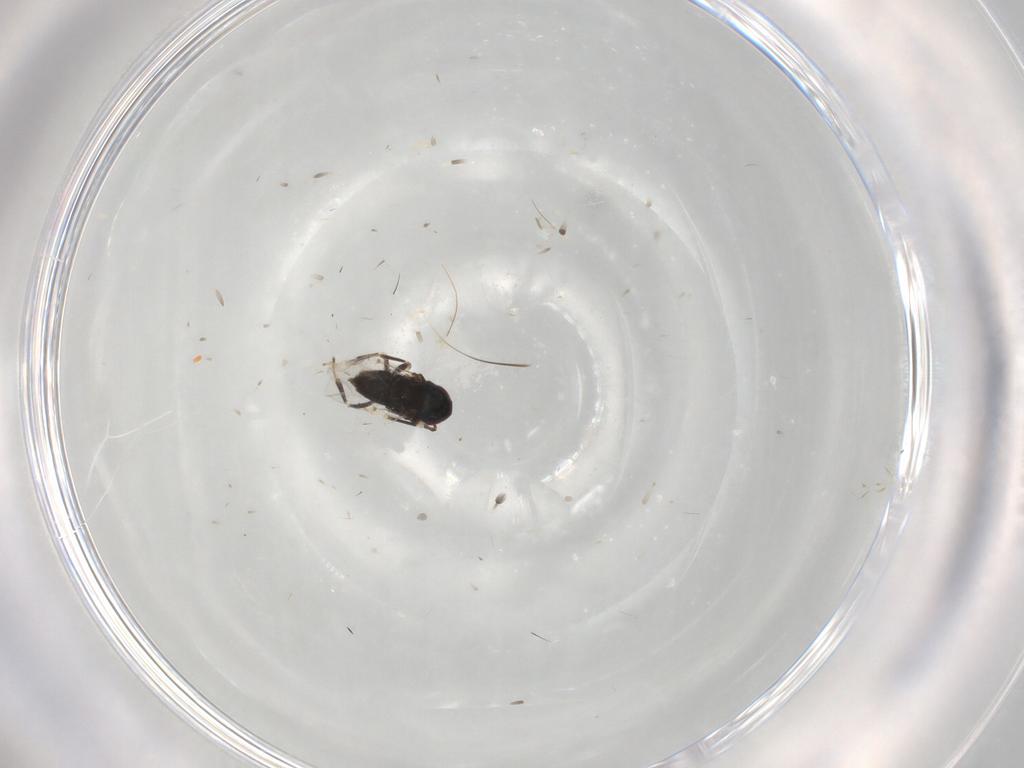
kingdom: Animalia
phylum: Arthropoda
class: Insecta
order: Hymenoptera
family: Encyrtidae
